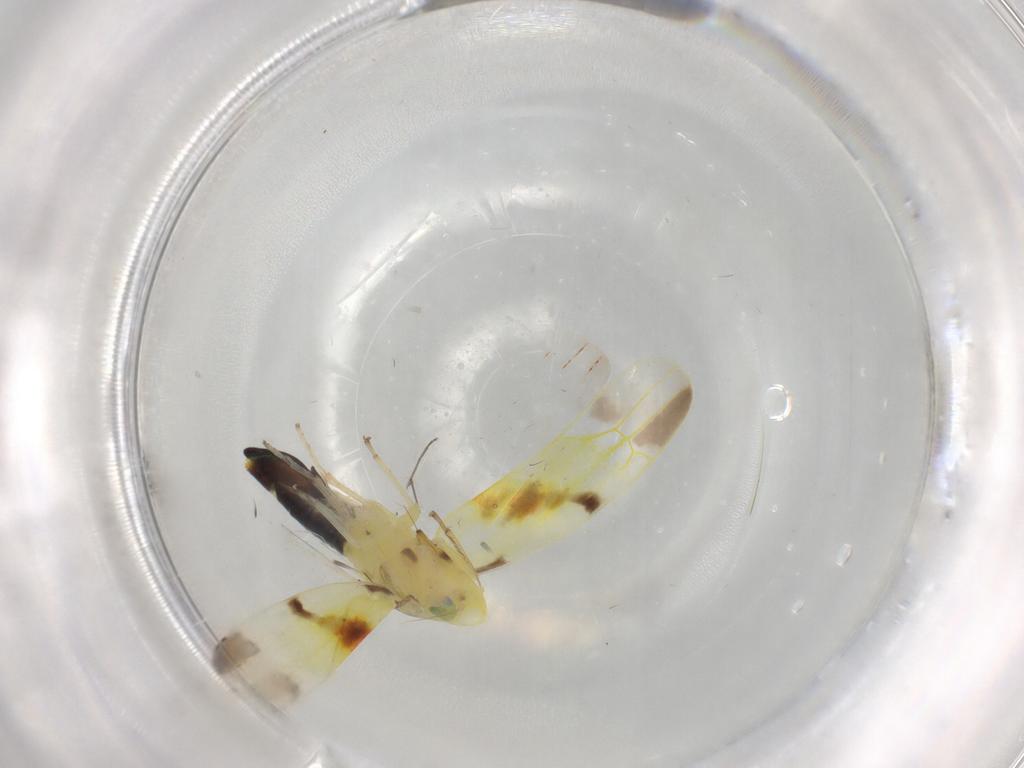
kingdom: Animalia
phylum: Arthropoda
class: Insecta
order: Hemiptera
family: Cicadellidae
